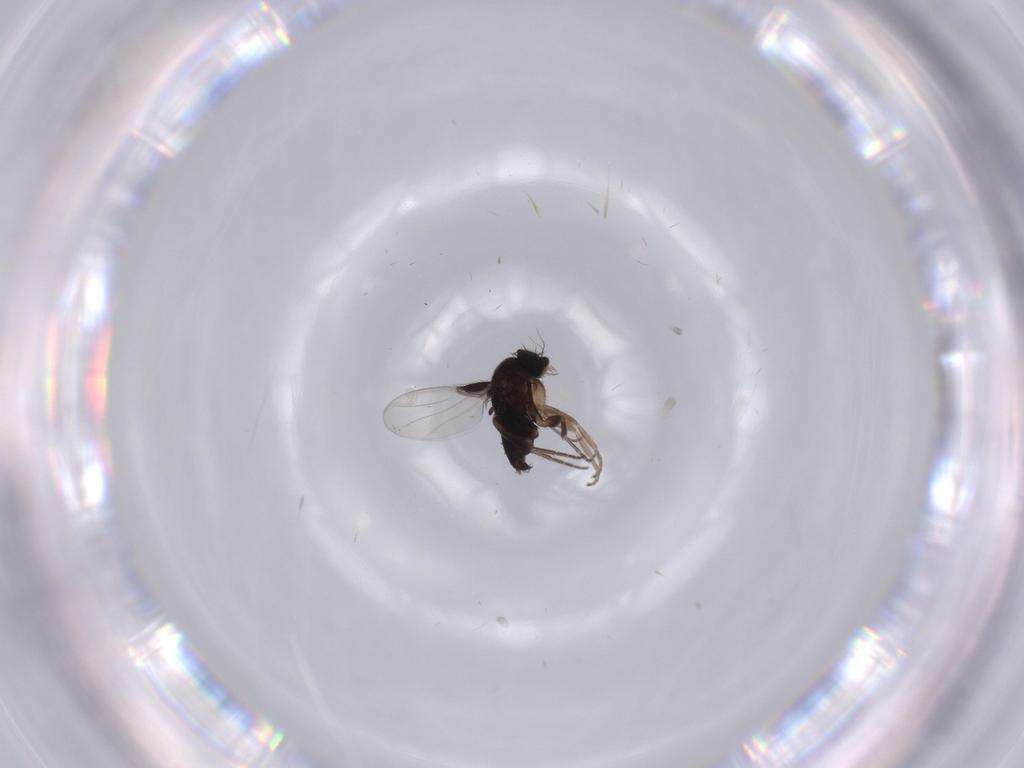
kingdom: Animalia
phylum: Arthropoda
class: Insecta
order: Diptera
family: Phoridae
